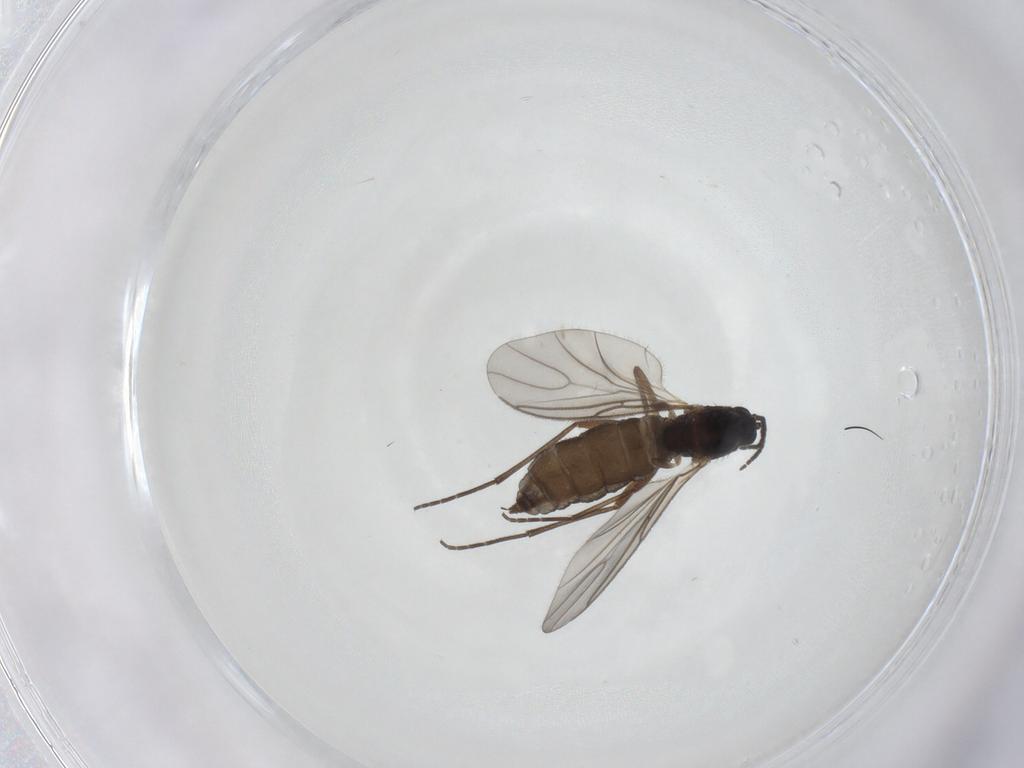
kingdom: Animalia
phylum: Arthropoda
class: Insecta
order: Diptera
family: Sciaridae
